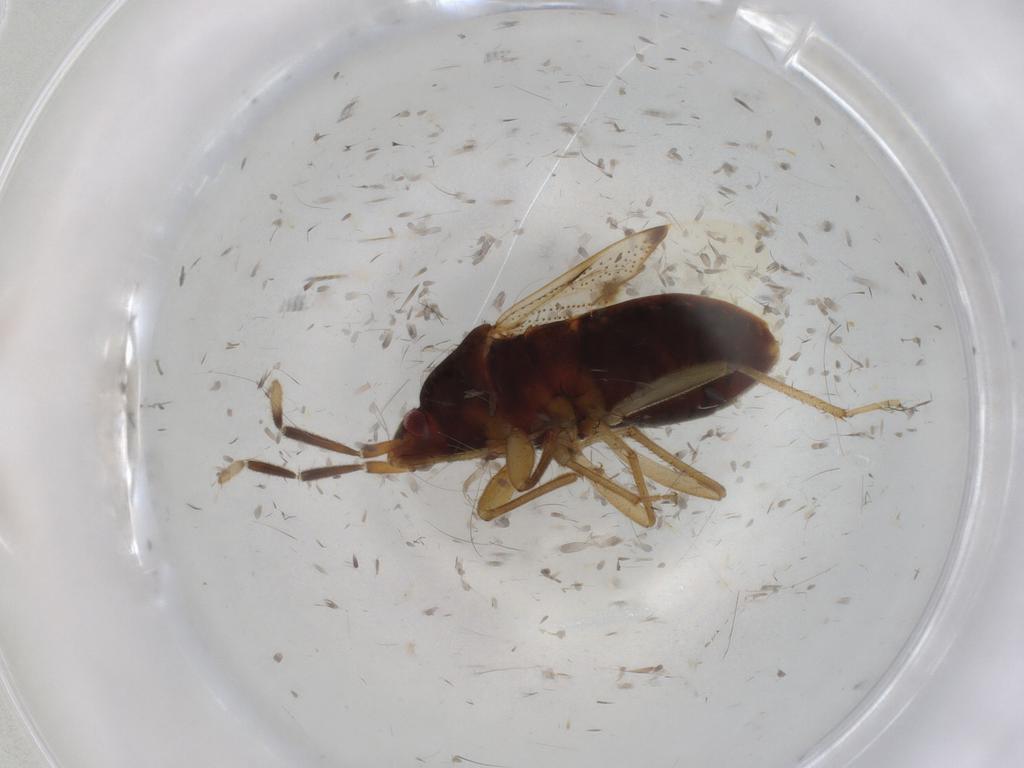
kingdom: Animalia
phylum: Arthropoda
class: Insecta
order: Hemiptera
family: Rhyparochromidae
